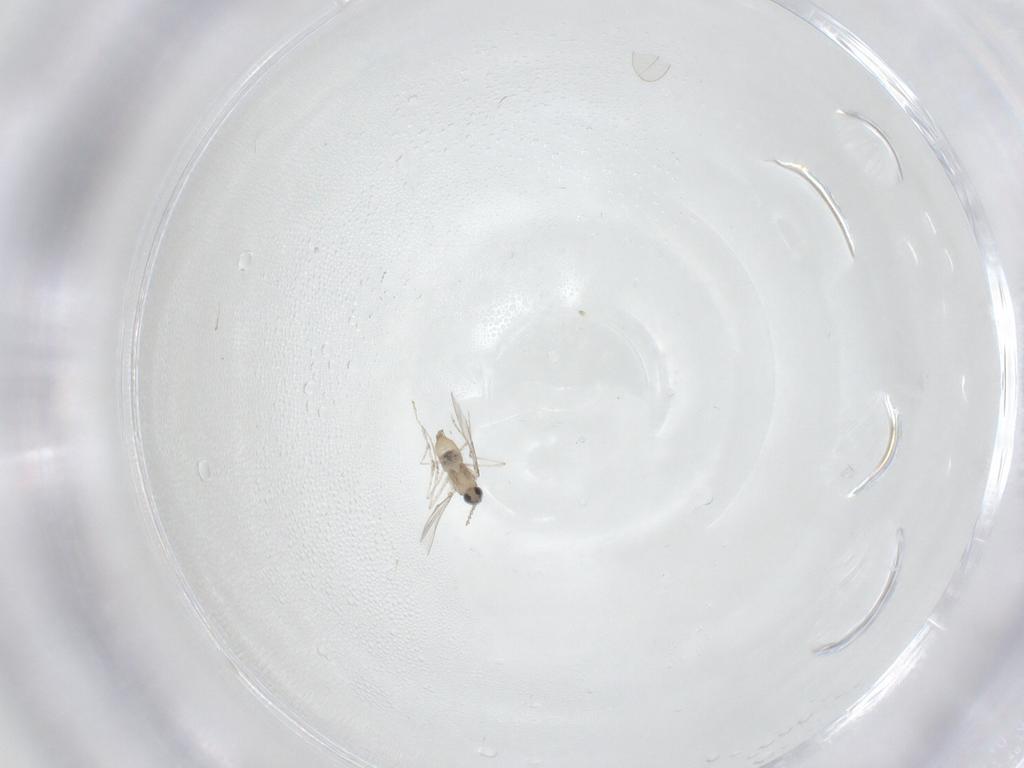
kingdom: Animalia
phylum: Arthropoda
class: Insecta
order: Diptera
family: Cecidomyiidae
